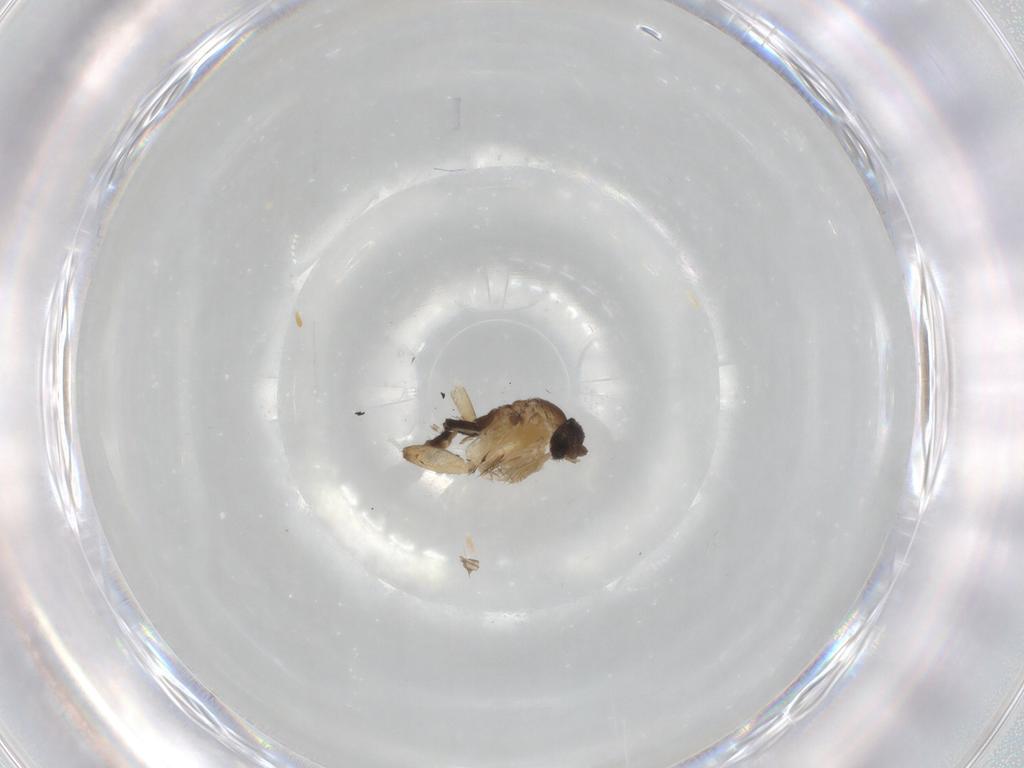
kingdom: Animalia
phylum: Arthropoda
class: Insecta
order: Diptera
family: Phoridae
